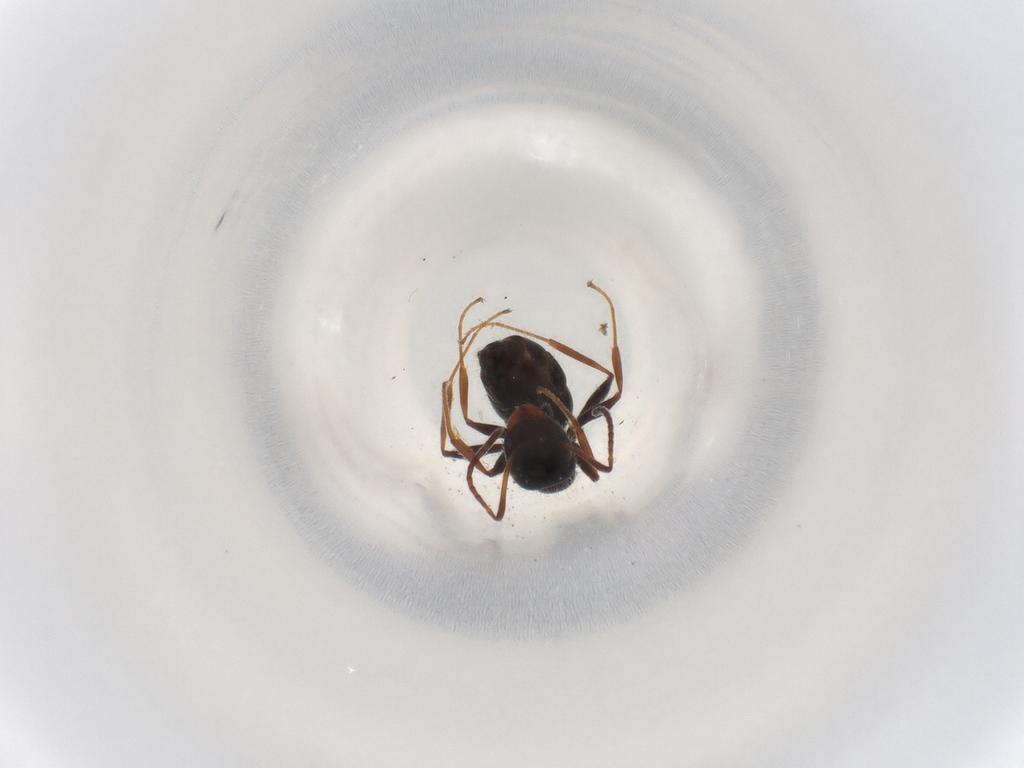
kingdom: Animalia
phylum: Arthropoda
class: Insecta
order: Hymenoptera
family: Formicidae
